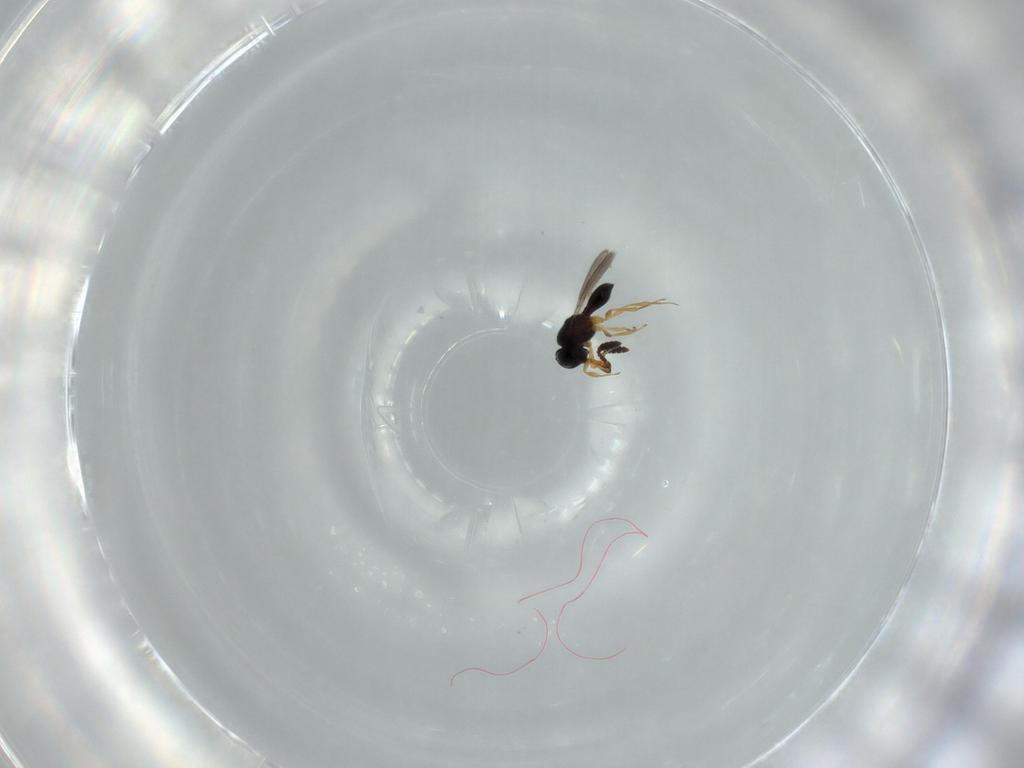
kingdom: Animalia
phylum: Arthropoda
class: Insecta
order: Hymenoptera
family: Scelionidae
